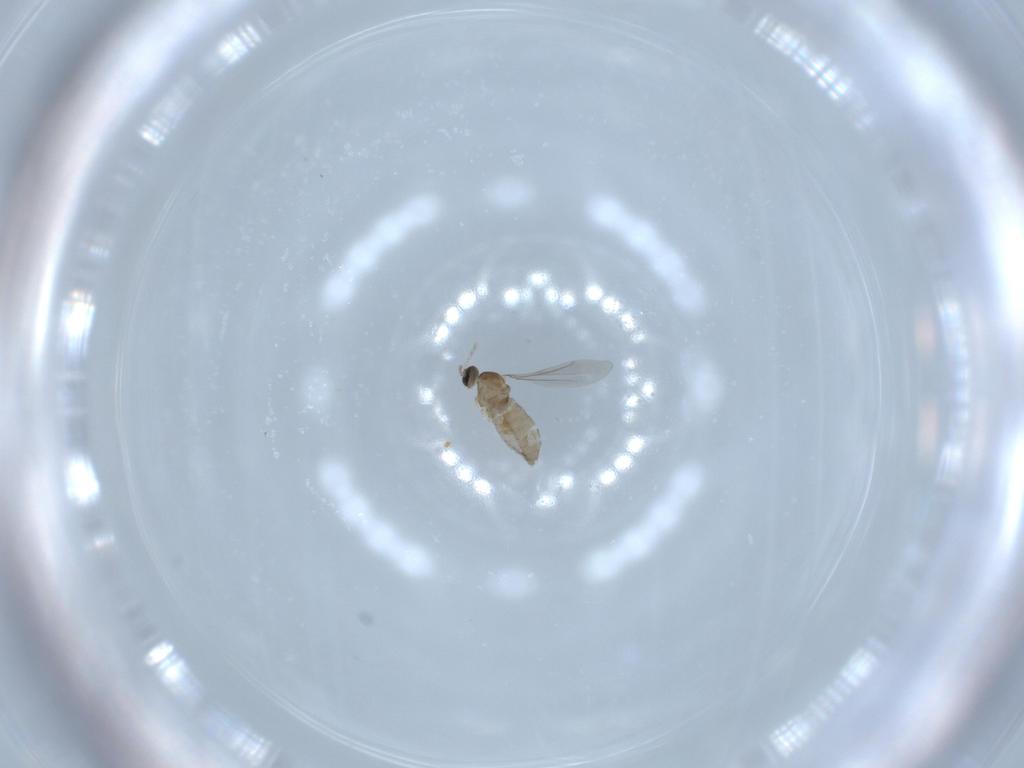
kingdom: Animalia
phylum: Arthropoda
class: Insecta
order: Diptera
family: Cecidomyiidae
